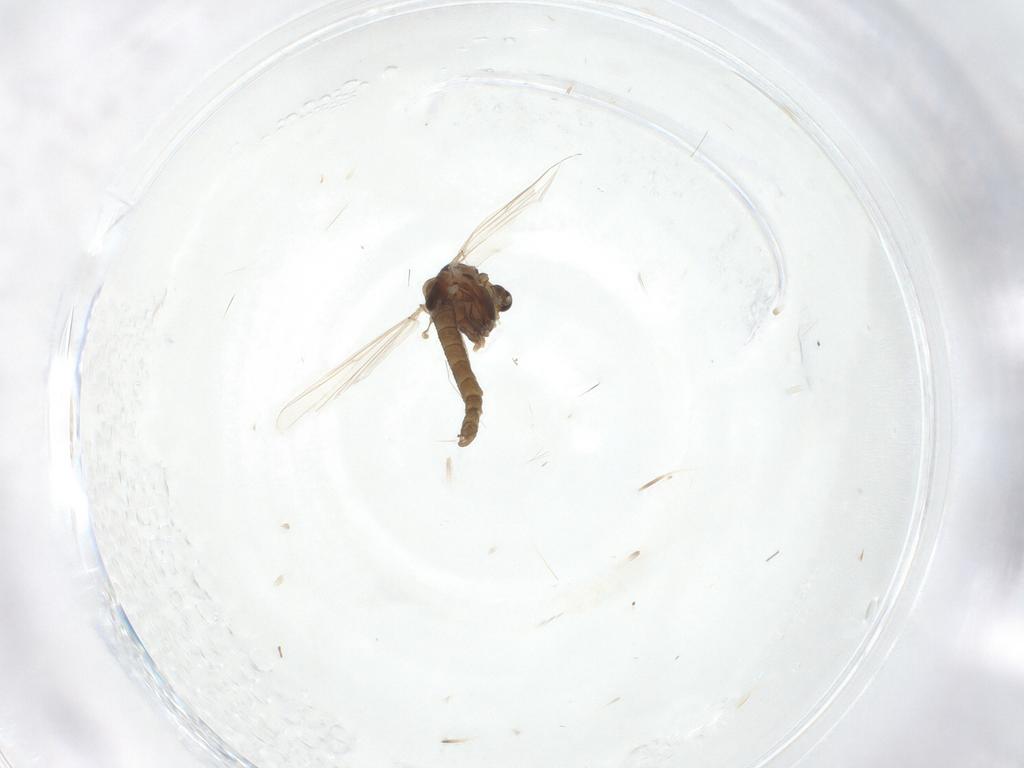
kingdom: Animalia
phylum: Arthropoda
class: Insecta
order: Diptera
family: Chironomidae
